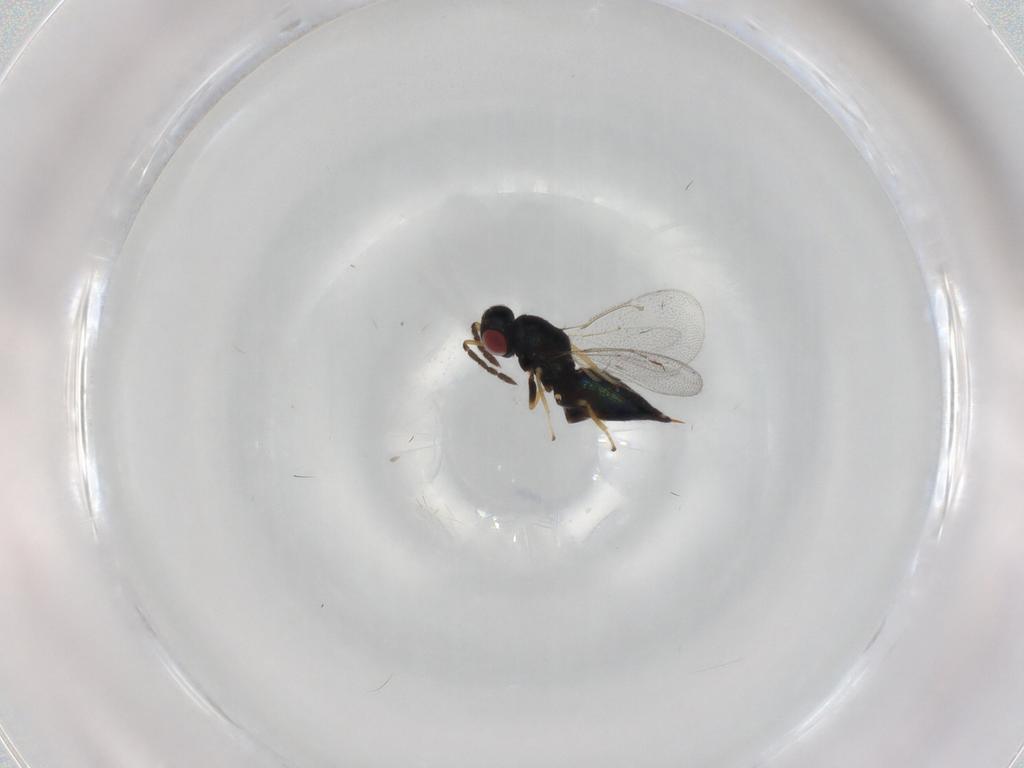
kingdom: Animalia
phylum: Arthropoda
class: Insecta
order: Hymenoptera
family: Eulophidae
